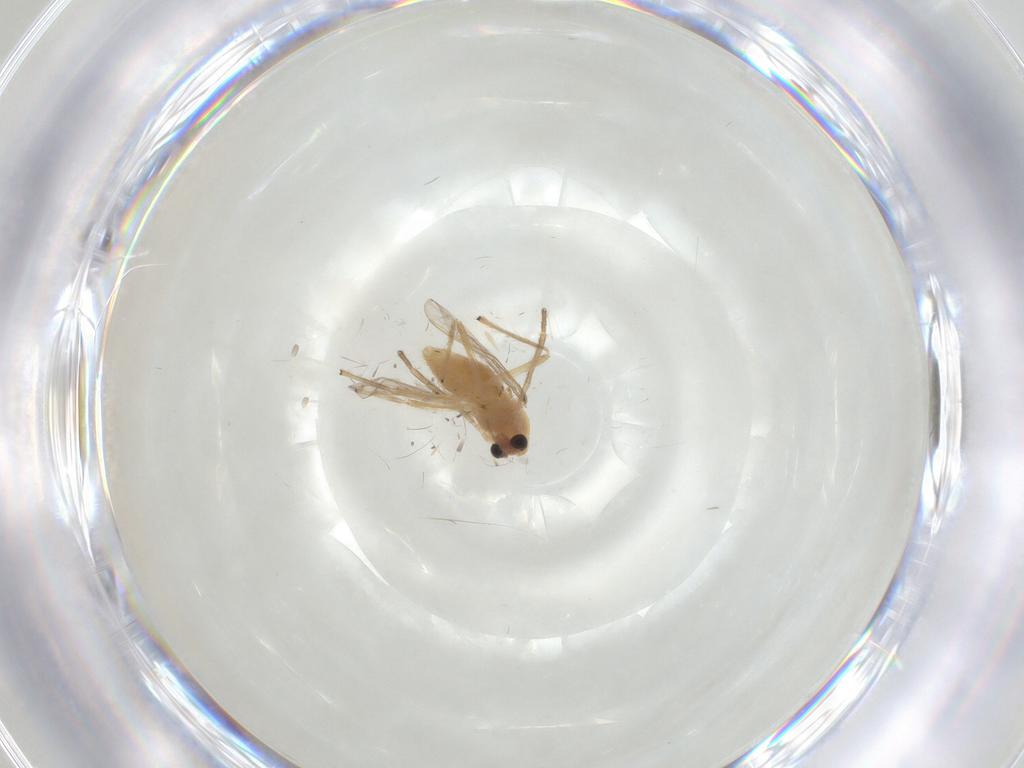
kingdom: Animalia
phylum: Arthropoda
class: Insecta
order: Diptera
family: Chironomidae
